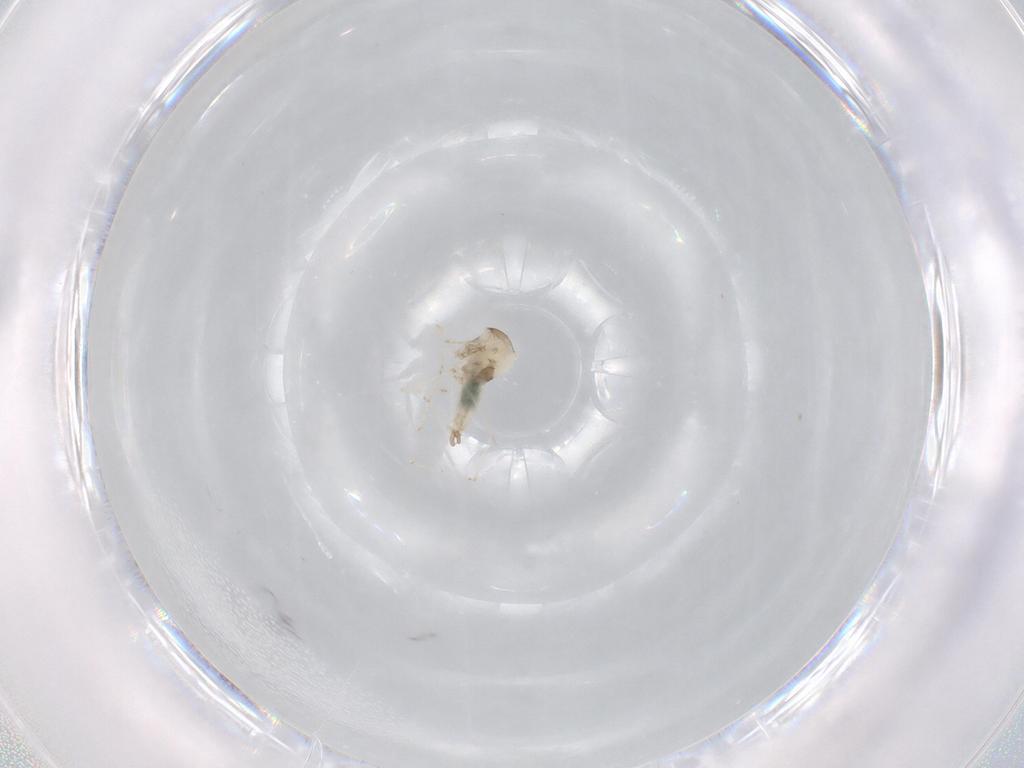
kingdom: Animalia
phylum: Arthropoda
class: Insecta
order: Diptera
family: Cecidomyiidae
